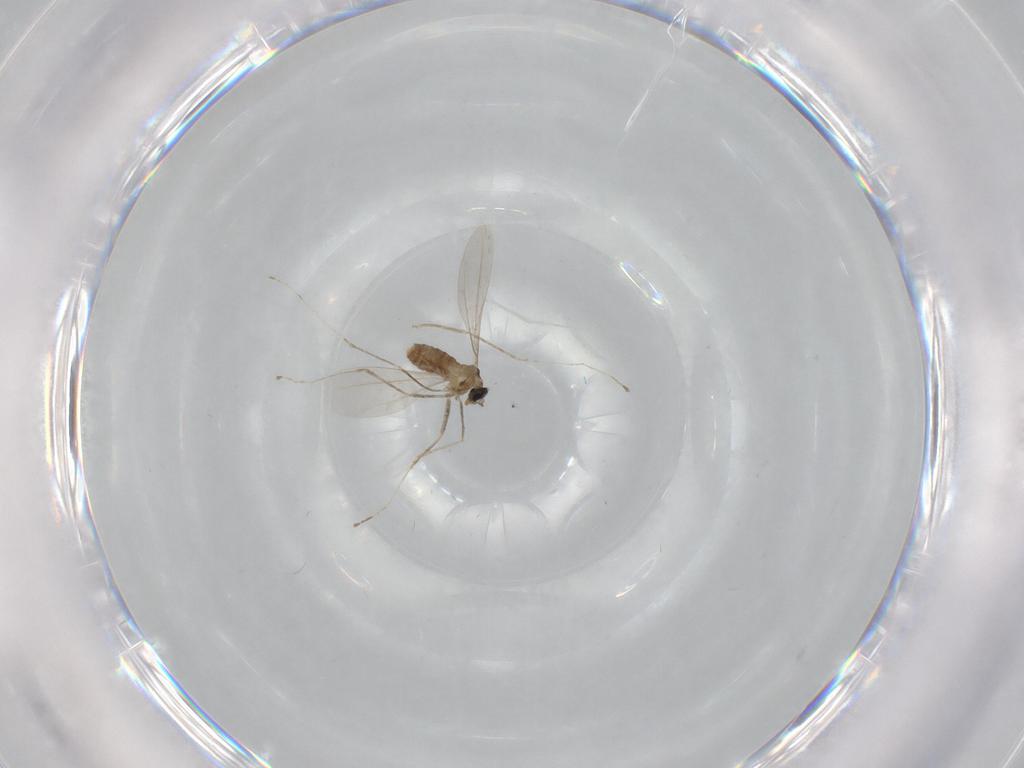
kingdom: Animalia
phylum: Arthropoda
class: Insecta
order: Diptera
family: Cecidomyiidae
